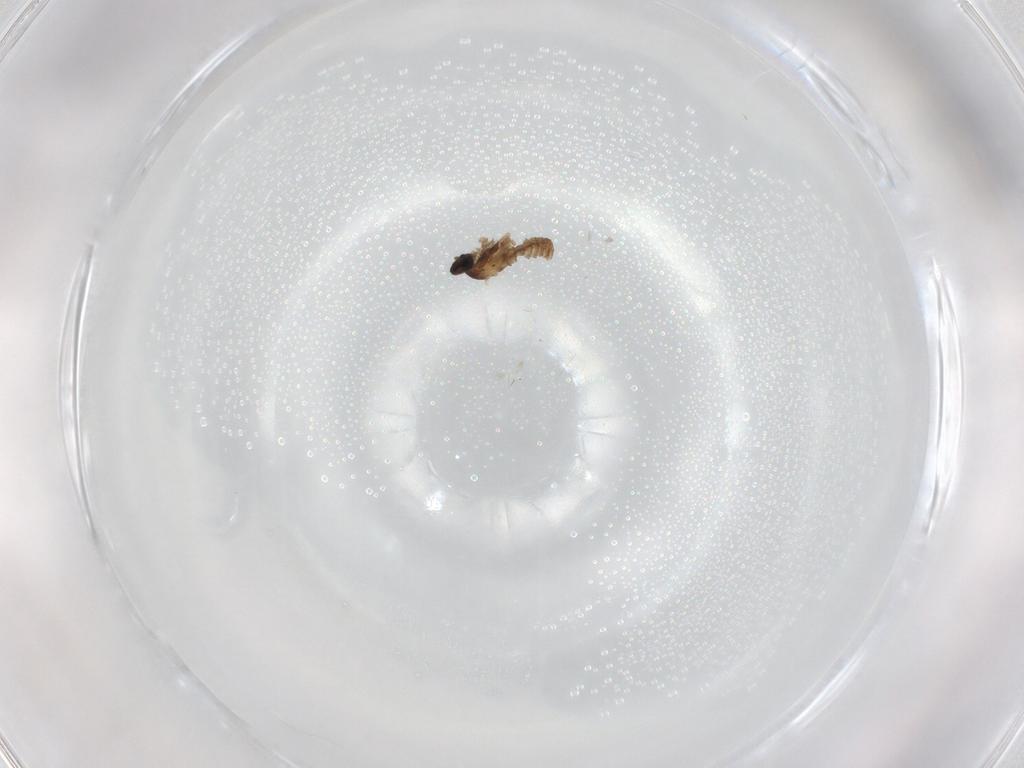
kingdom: Animalia
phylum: Arthropoda
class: Insecta
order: Diptera
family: Cecidomyiidae
